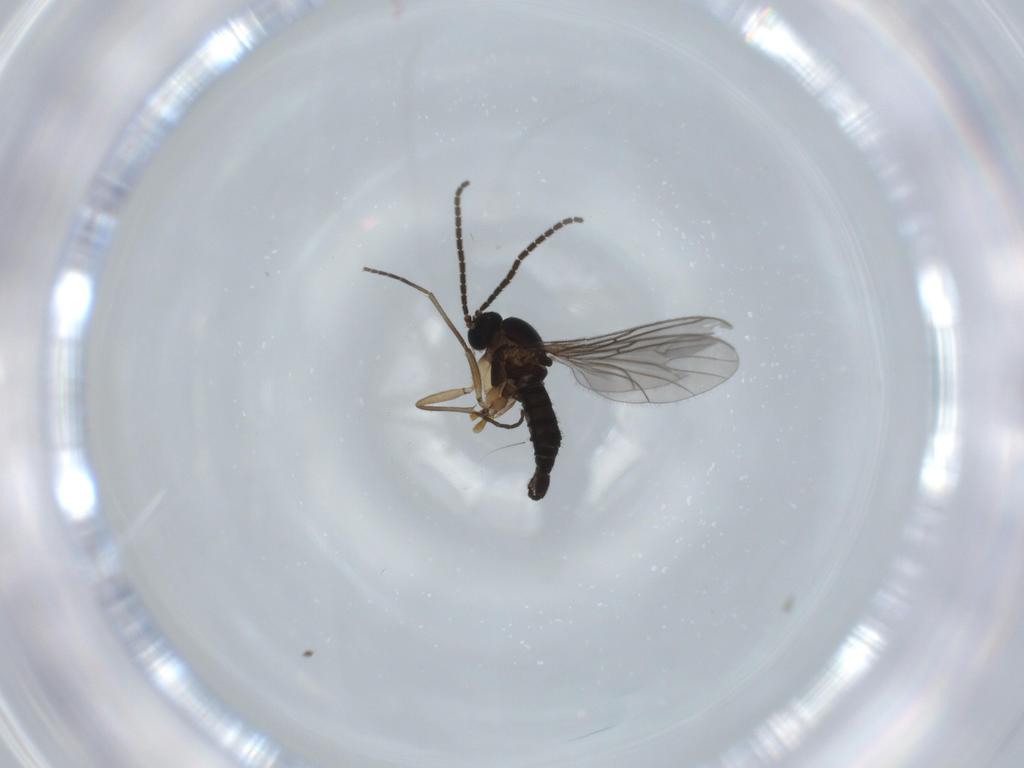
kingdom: Animalia
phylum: Arthropoda
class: Insecta
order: Diptera
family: Sciaridae
